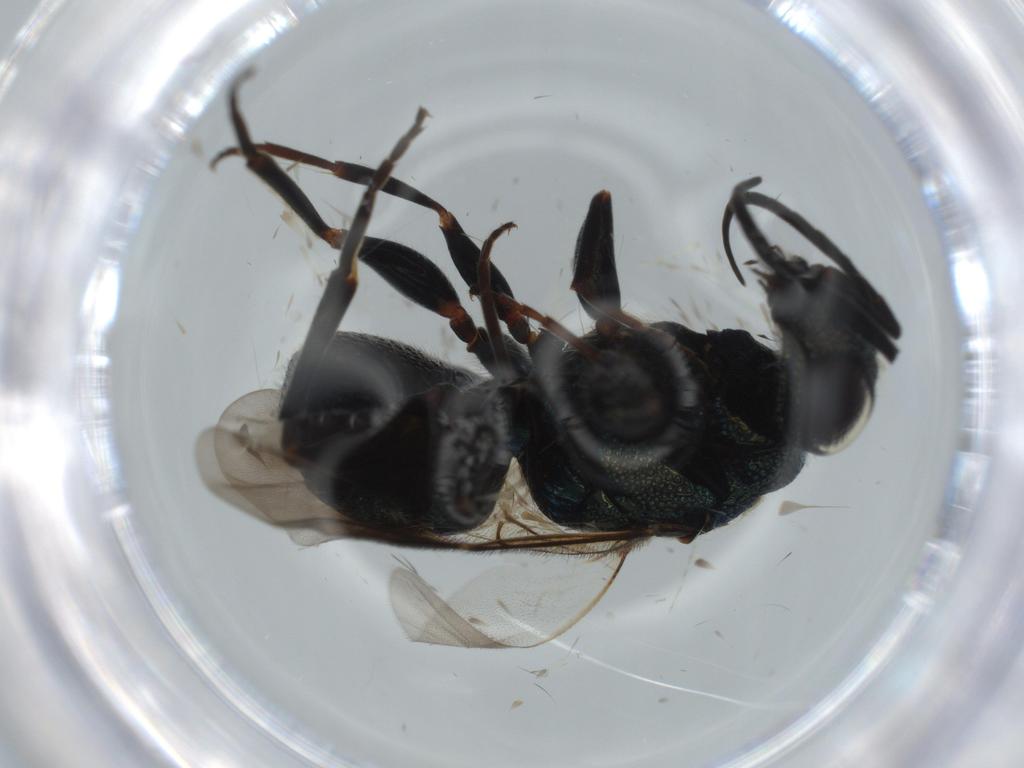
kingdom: Animalia
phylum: Arthropoda
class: Insecta
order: Hymenoptera
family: Chrysididae
